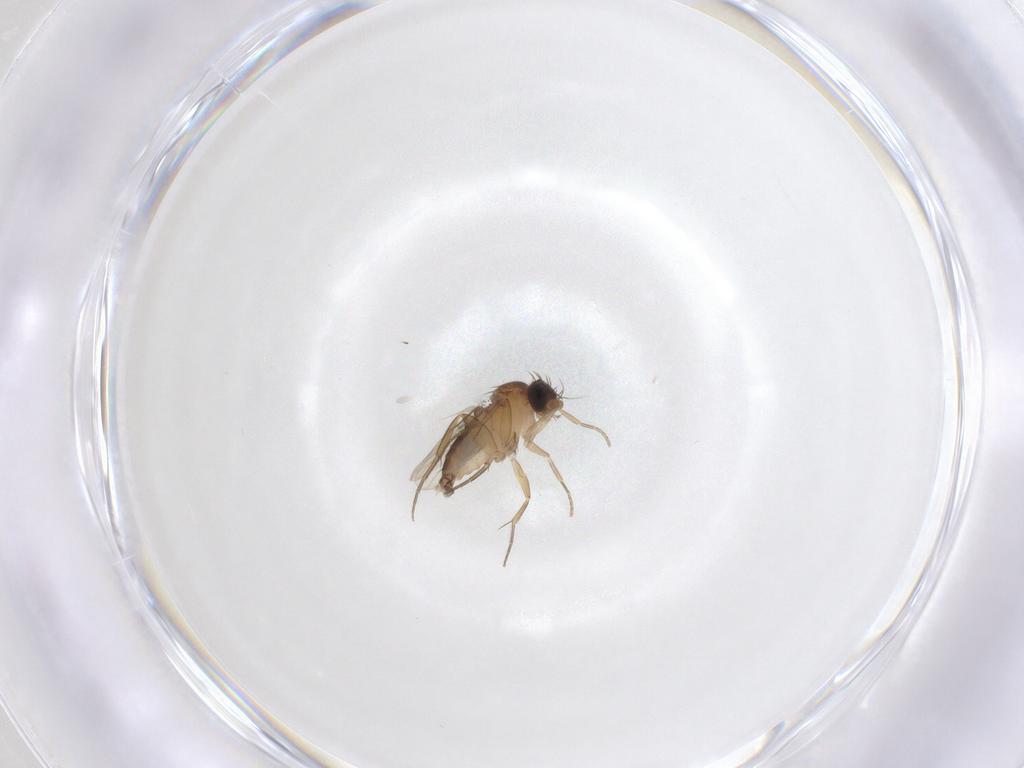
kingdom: Animalia
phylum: Arthropoda
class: Insecta
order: Diptera
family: Phoridae
